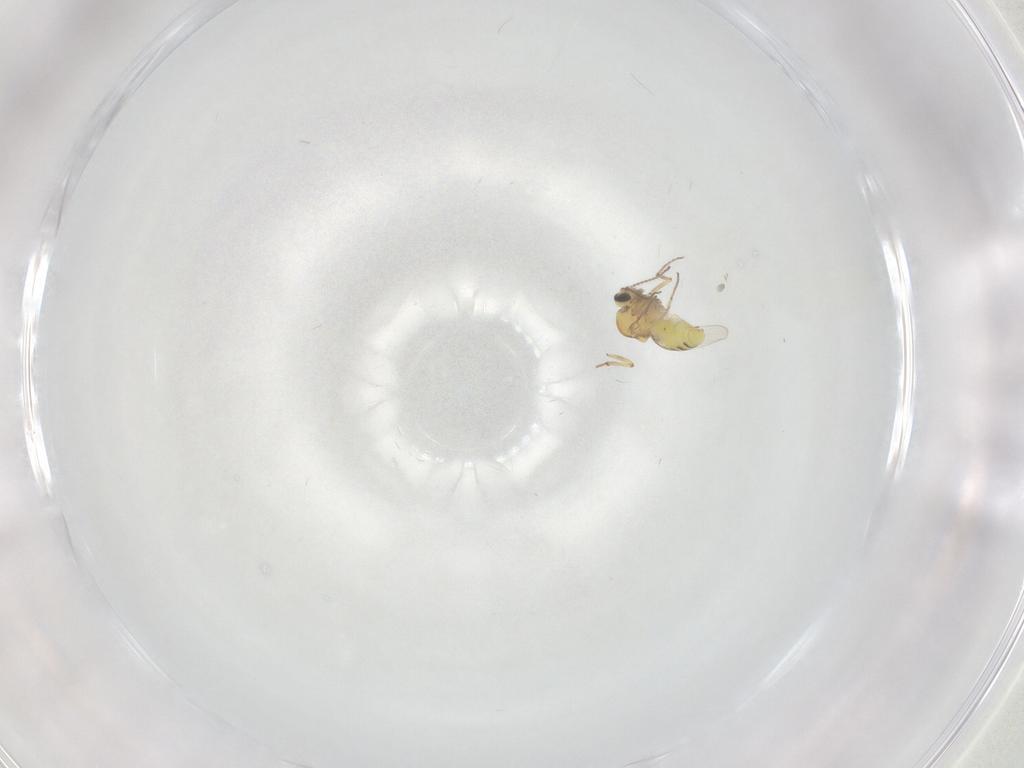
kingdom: Animalia
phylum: Arthropoda
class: Insecta
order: Diptera
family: Ceratopogonidae
